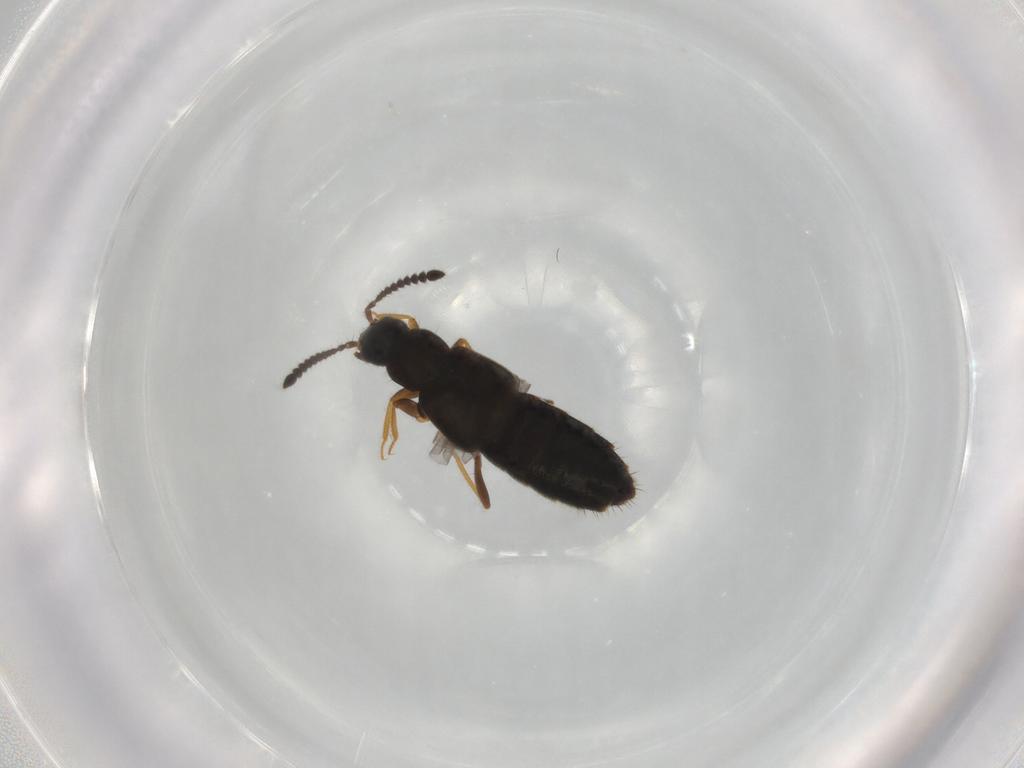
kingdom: Animalia
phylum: Arthropoda
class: Insecta
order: Coleoptera
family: Staphylinidae
